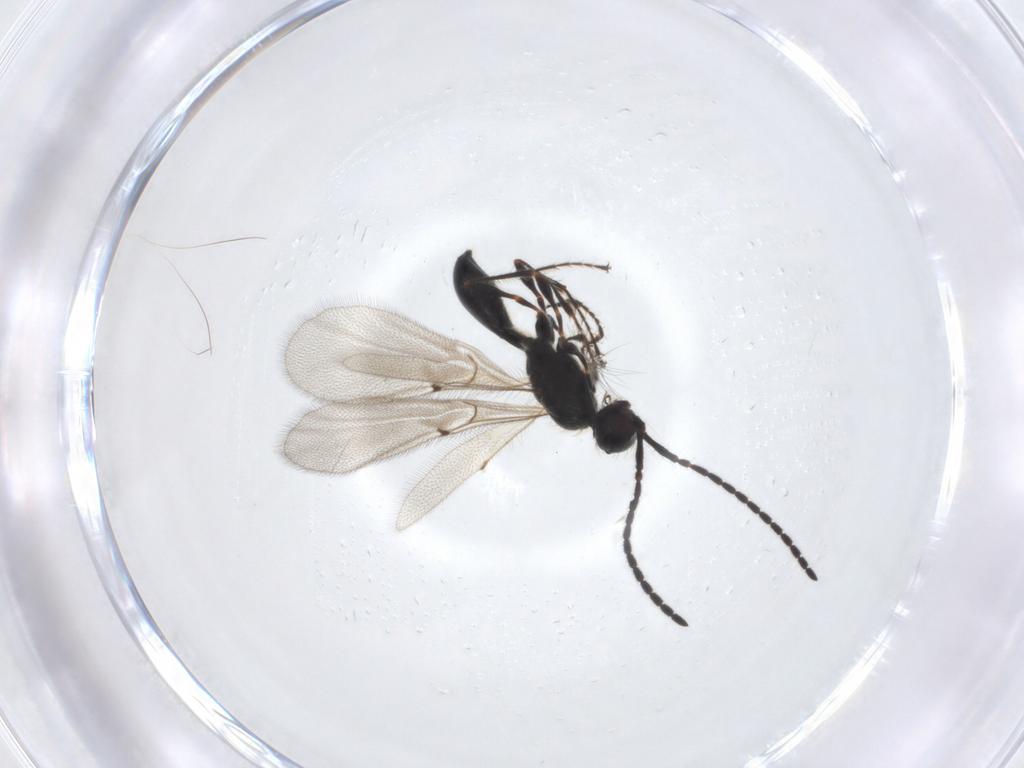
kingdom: Animalia
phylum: Arthropoda
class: Insecta
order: Hymenoptera
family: Diapriidae
